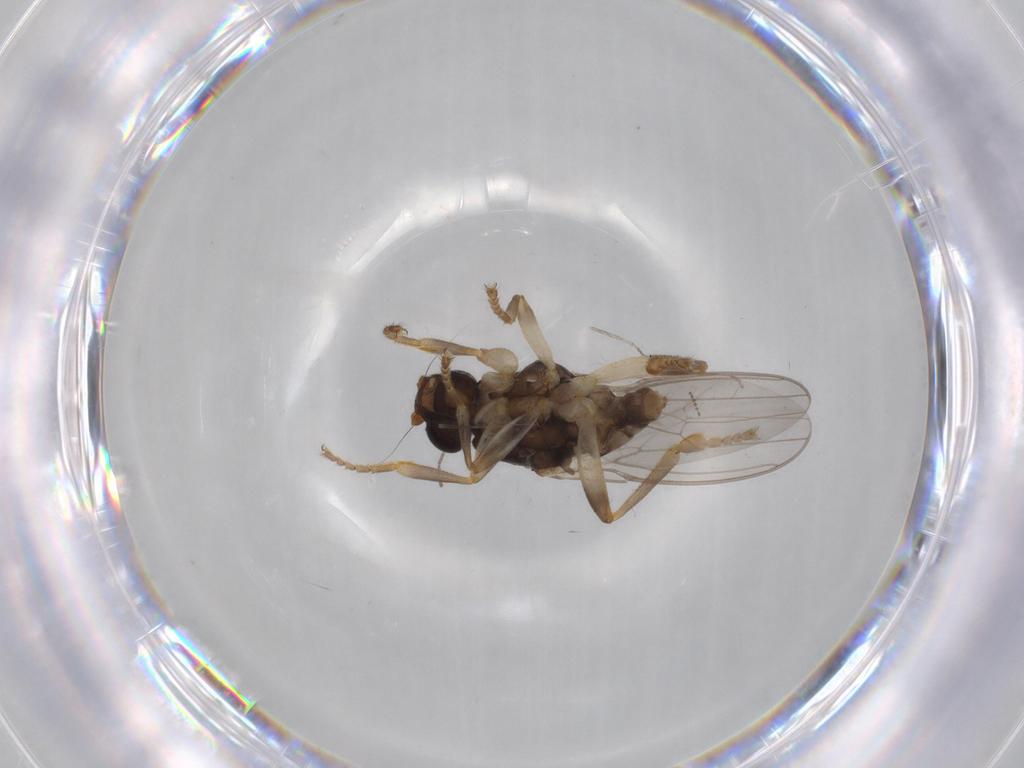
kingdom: Animalia
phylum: Arthropoda
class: Insecta
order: Diptera
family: Sphaeroceridae
